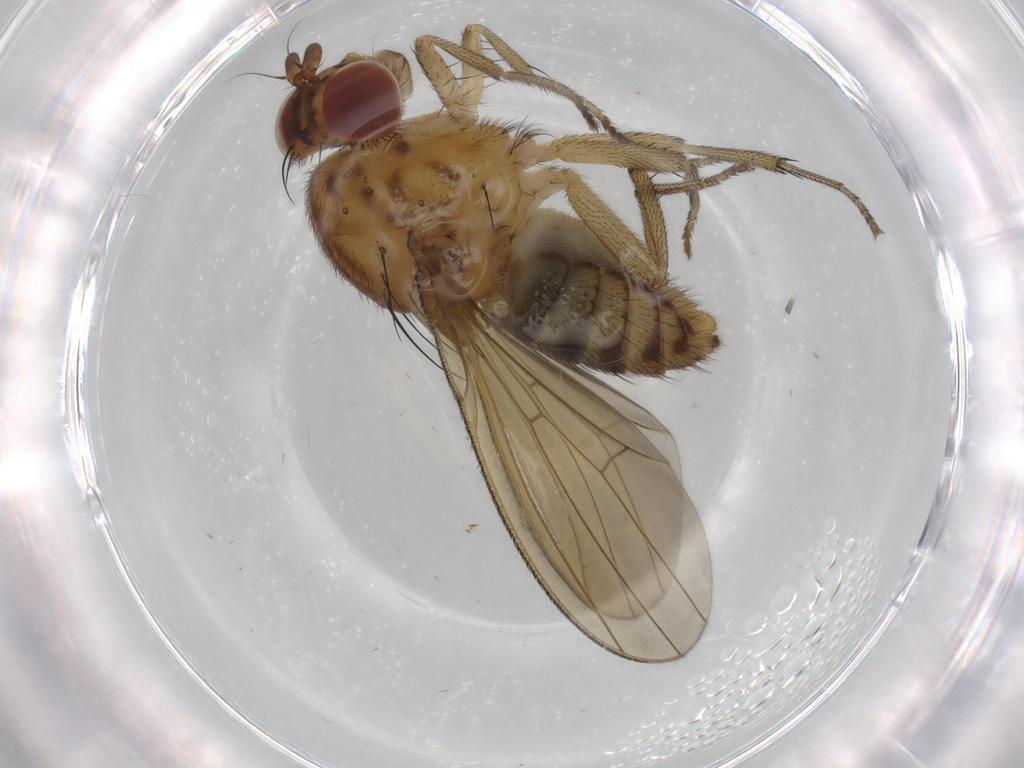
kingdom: Animalia
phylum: Arthropoda
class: Insecta
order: Diptera
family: Lauxaniidae
